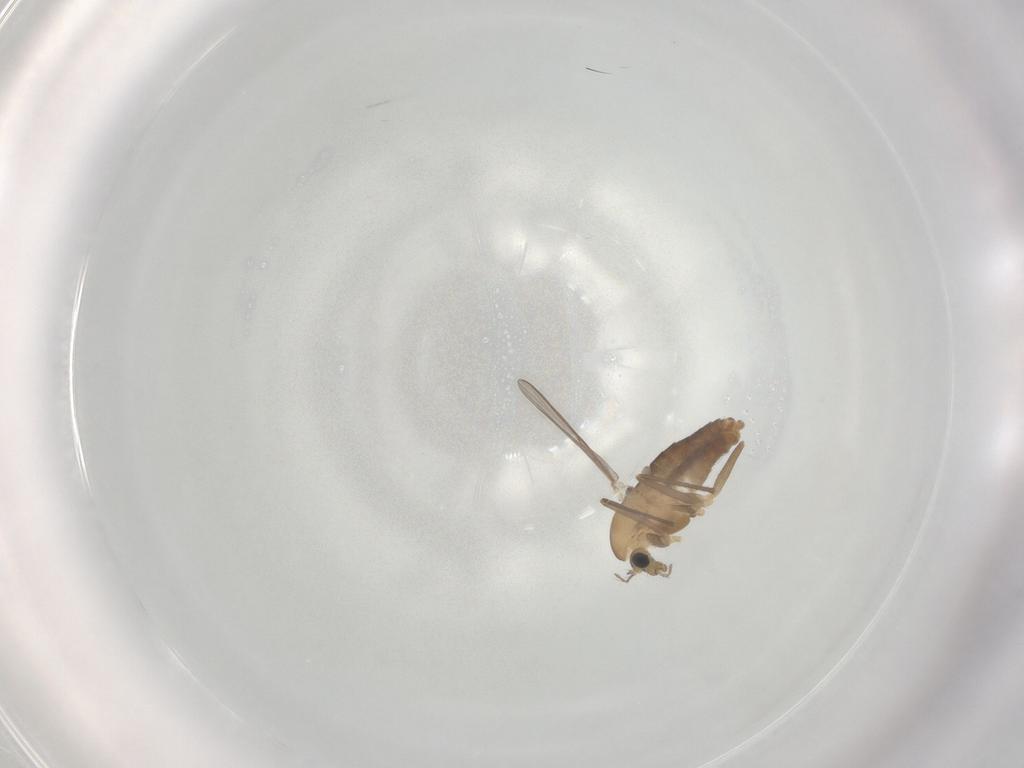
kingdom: Animalia
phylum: Arthropoda
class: Insecta
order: Diptera
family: Chironomidae
